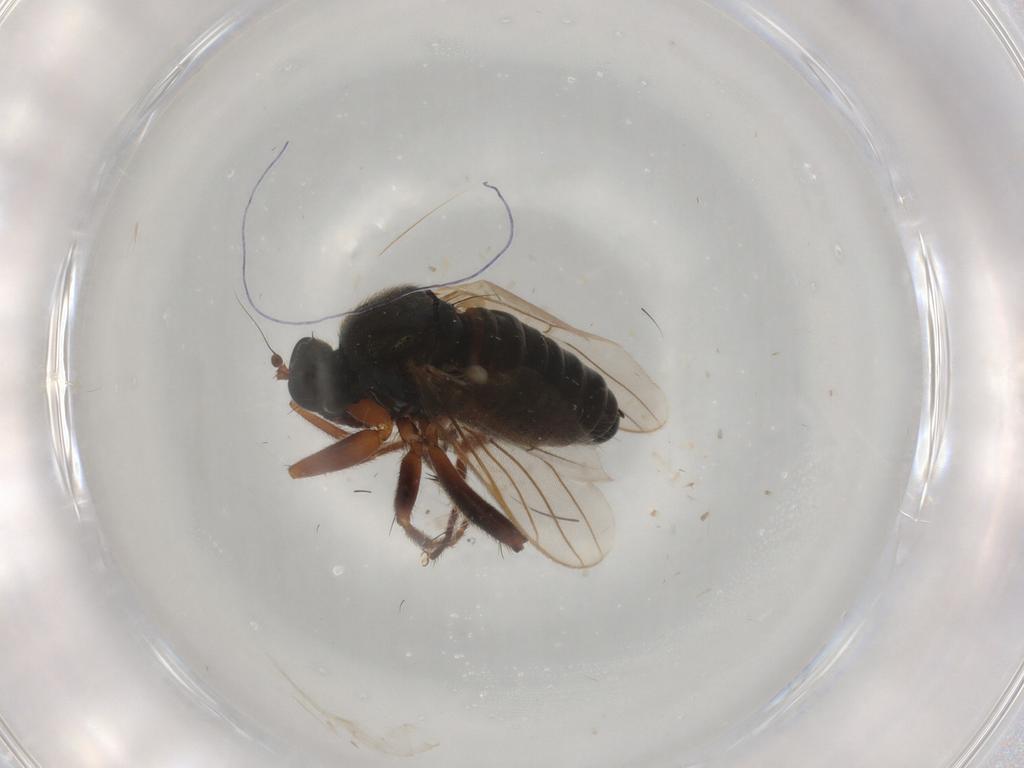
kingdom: Animalia
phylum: Arthropoda
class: Insecta
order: Diptera
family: Hybotidae
